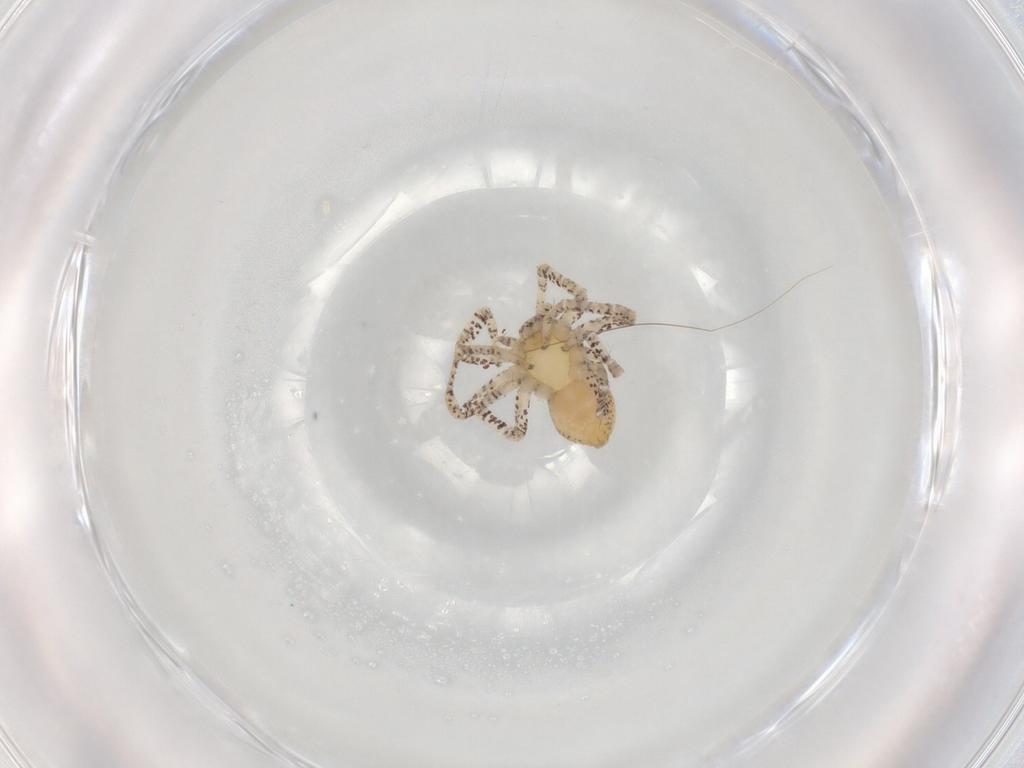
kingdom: Animalia
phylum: Arthropoda
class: Arachnida
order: Araneae
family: Philodromidae
